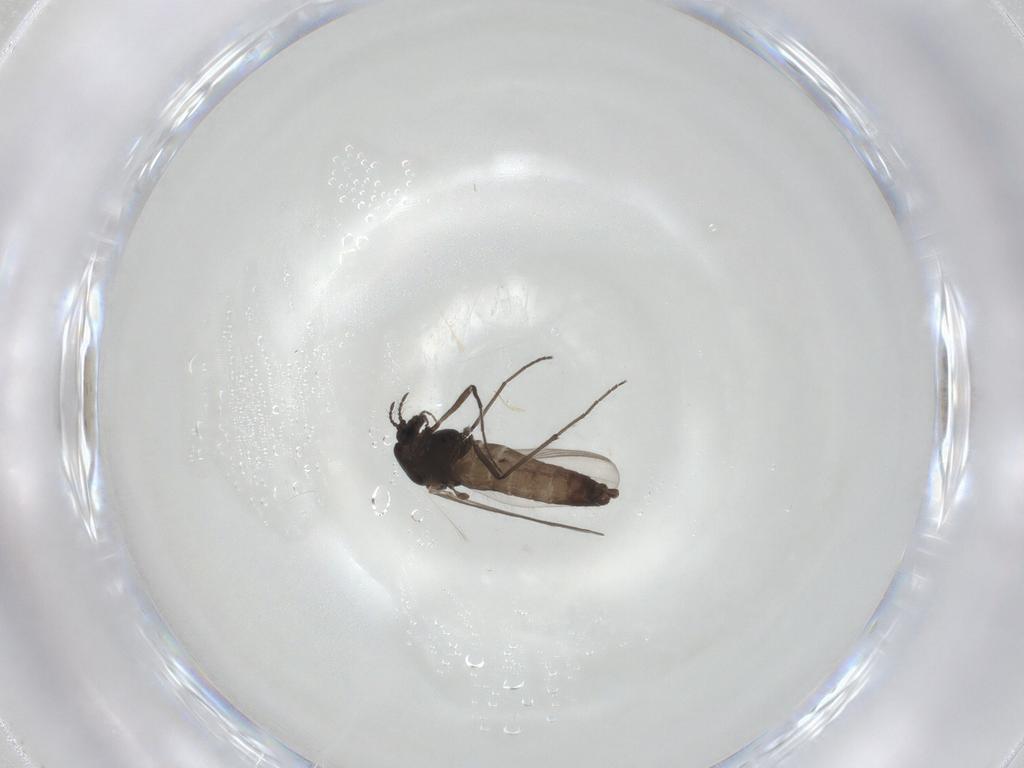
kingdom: Animalia
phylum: Arthropoda
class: Insecta
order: Diptera
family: Chironomidae
